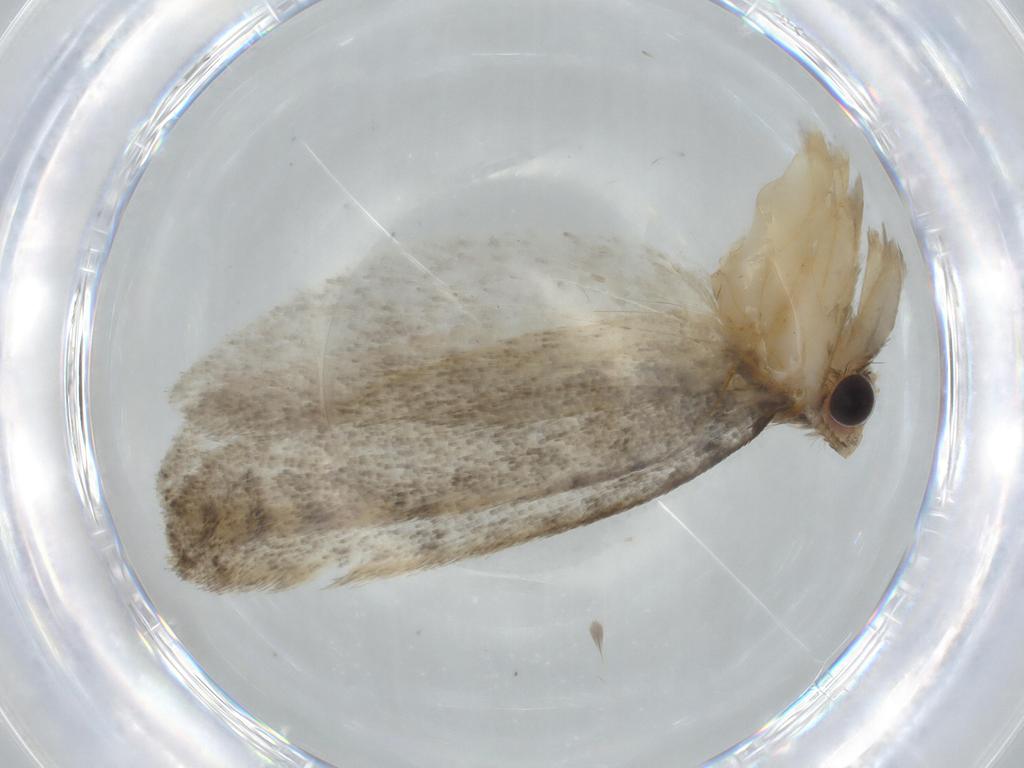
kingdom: Animalia
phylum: Arthropoda
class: Insecta
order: Lepidoptera
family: Tineidae
